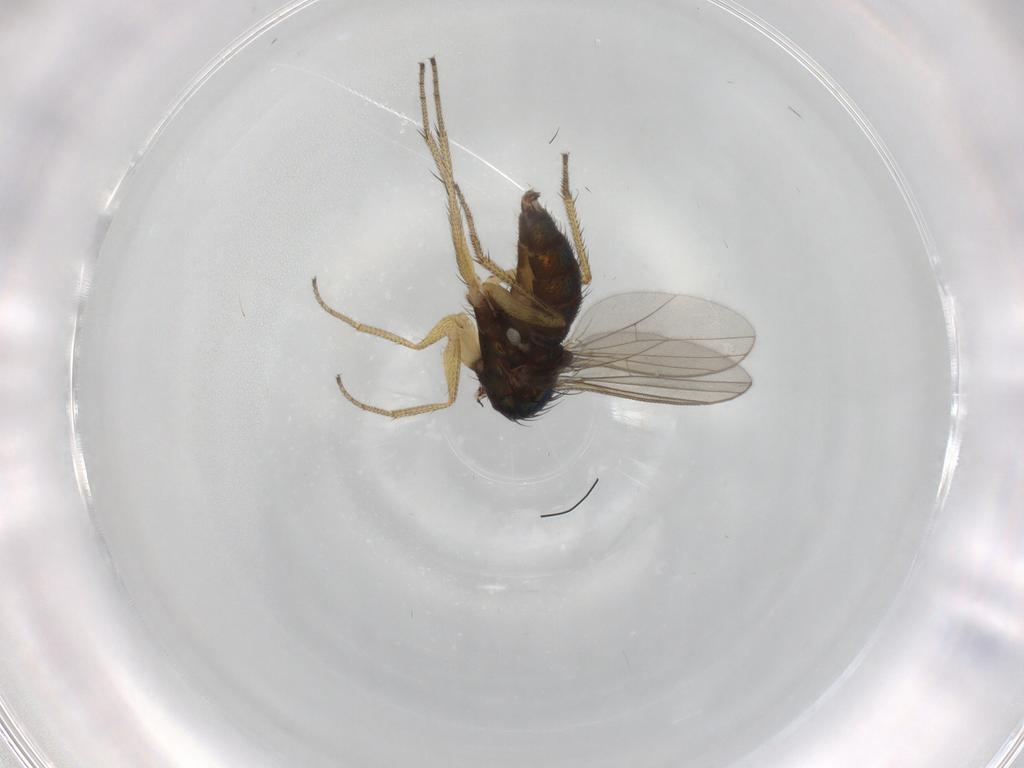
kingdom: Animalia
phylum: Arthropoda
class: Insecta
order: Diptera
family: Dolichopodidae
